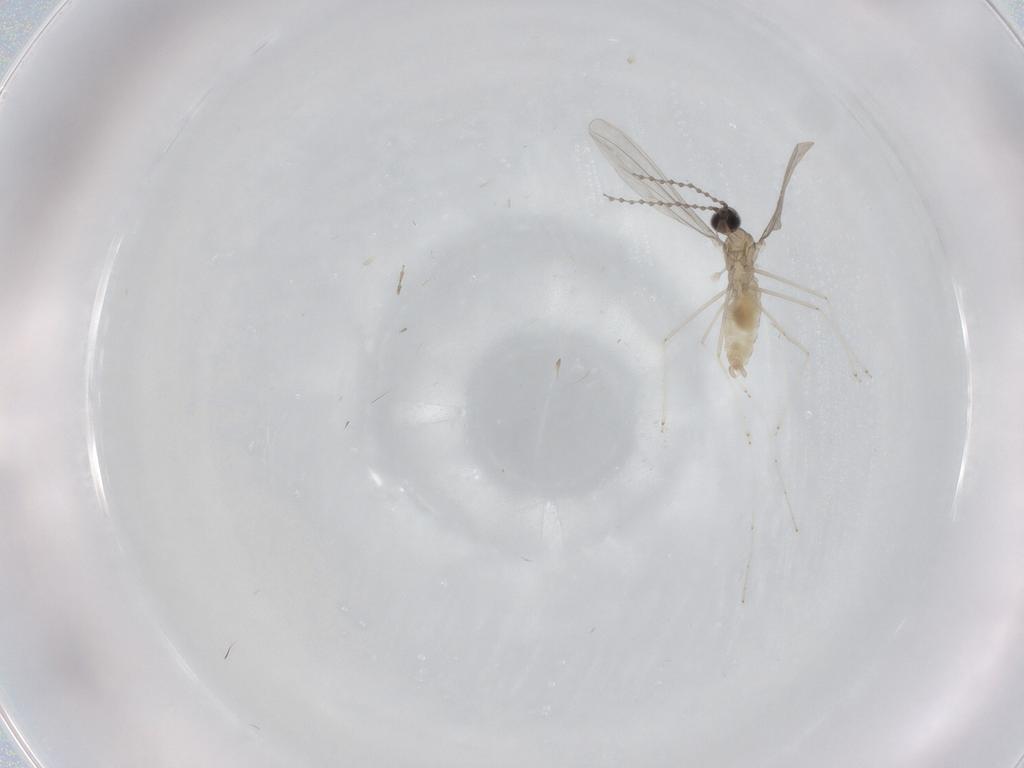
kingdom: Animalia
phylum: Arthropoda
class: Insecta
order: Diptera
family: Cecidomyiidae
